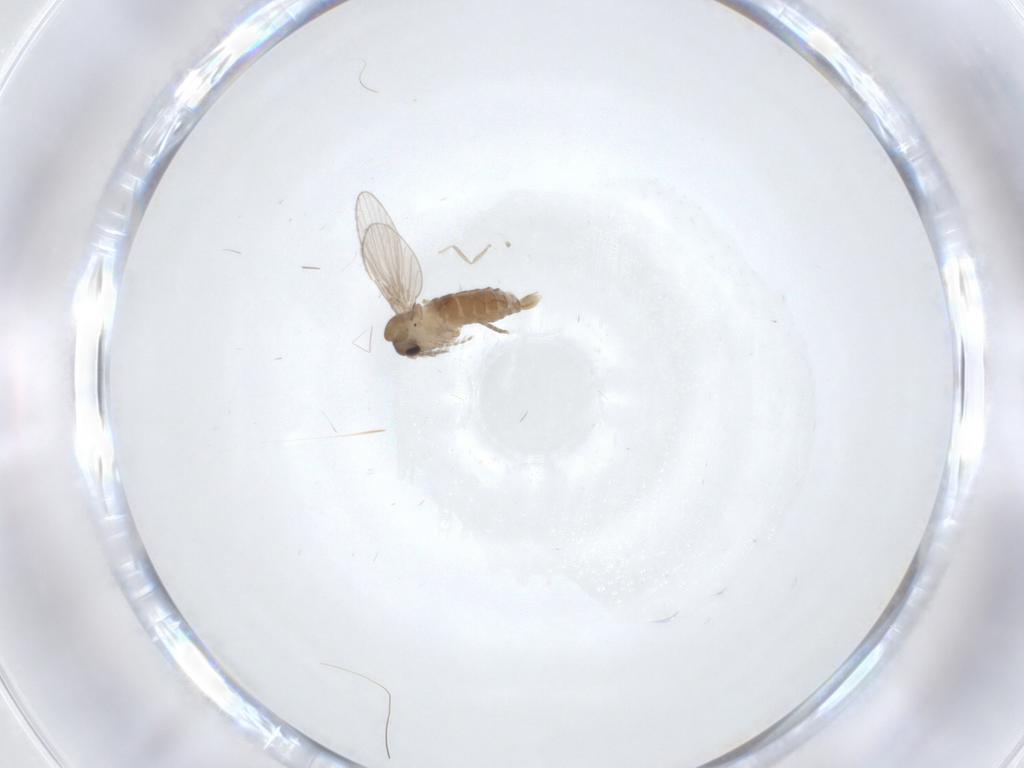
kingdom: Animalia
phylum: Arthropoda
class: Insecta
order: Diptera
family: Cecidomyiidae
